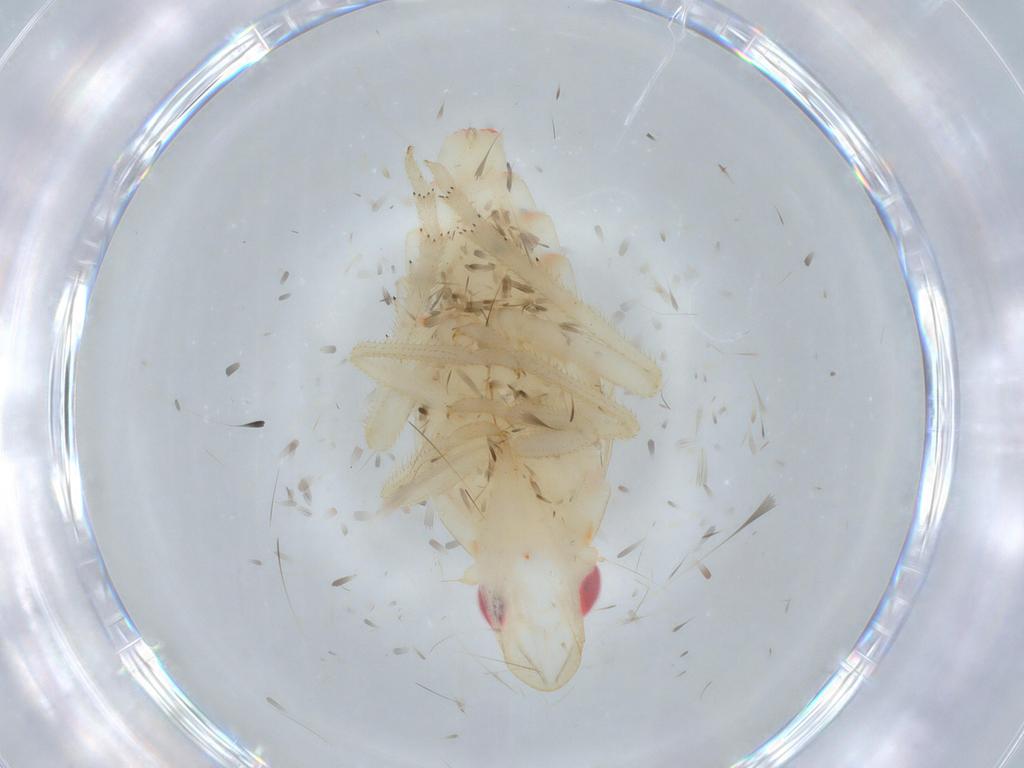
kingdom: Animalia
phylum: Arthropoda
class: Insecta
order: Hemiptera
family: Tropiduchidae
